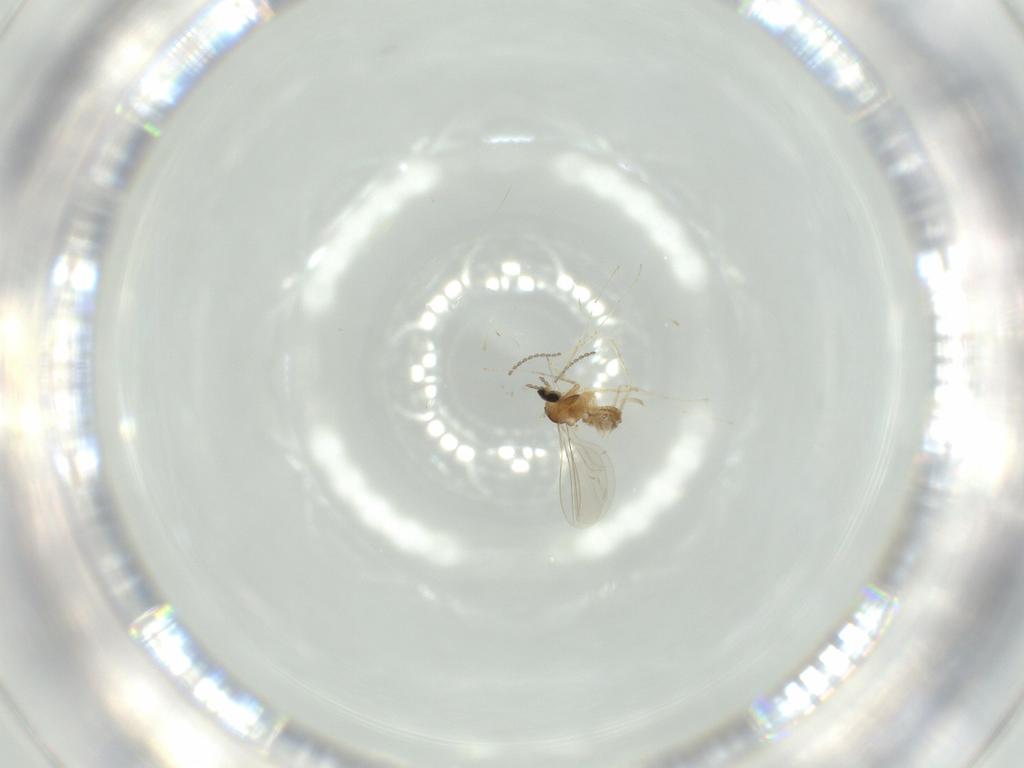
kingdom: Animalia
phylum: Arthropoda
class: Insecta
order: Diptera
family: Cecidomyiidae
